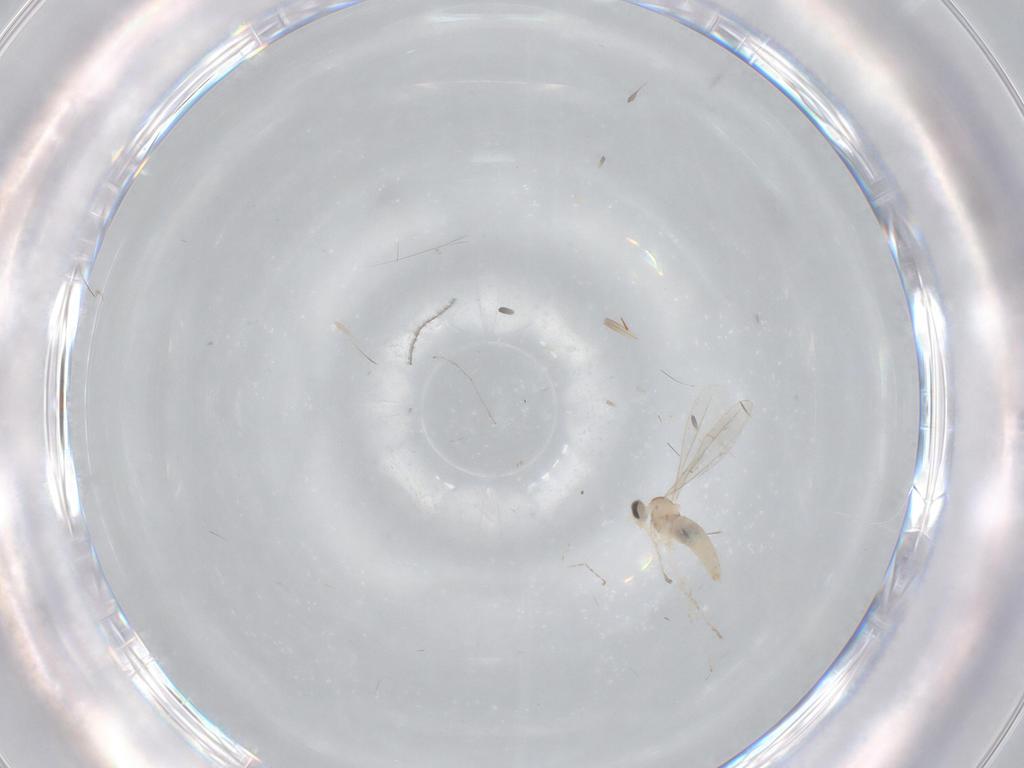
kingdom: Animalia
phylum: Arthropoda
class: Insecta
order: Diptera
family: Cecidomyiidae
